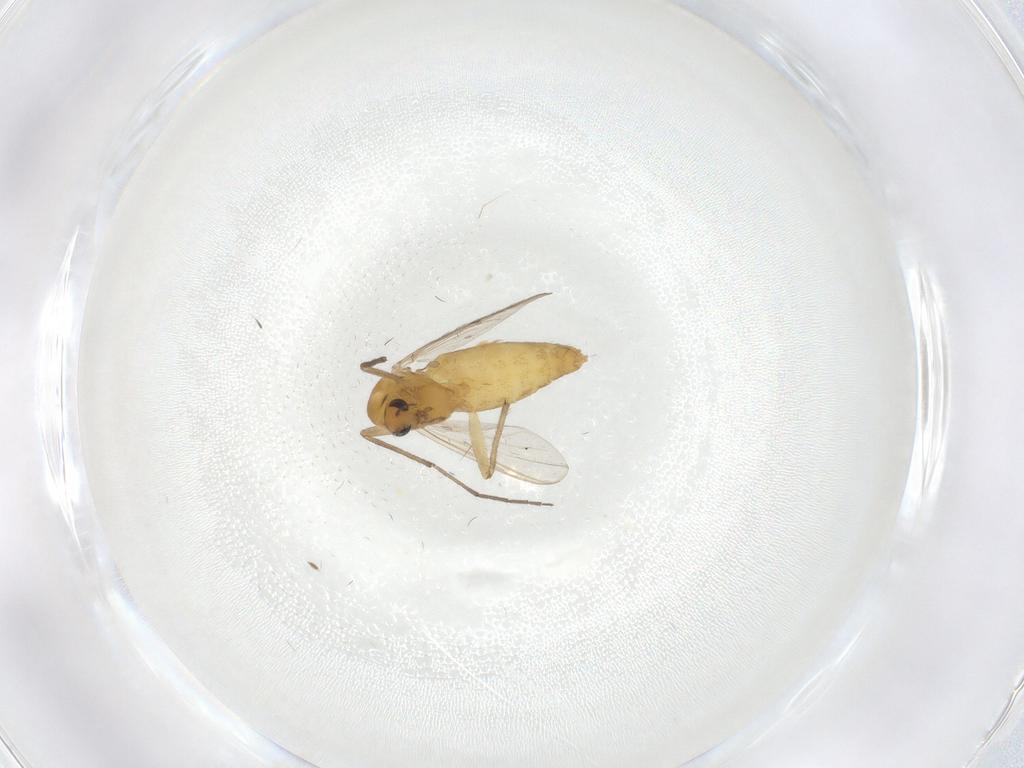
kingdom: Animalia
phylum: Arthropoda
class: Insecta
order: Diptera
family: Chironomidae
